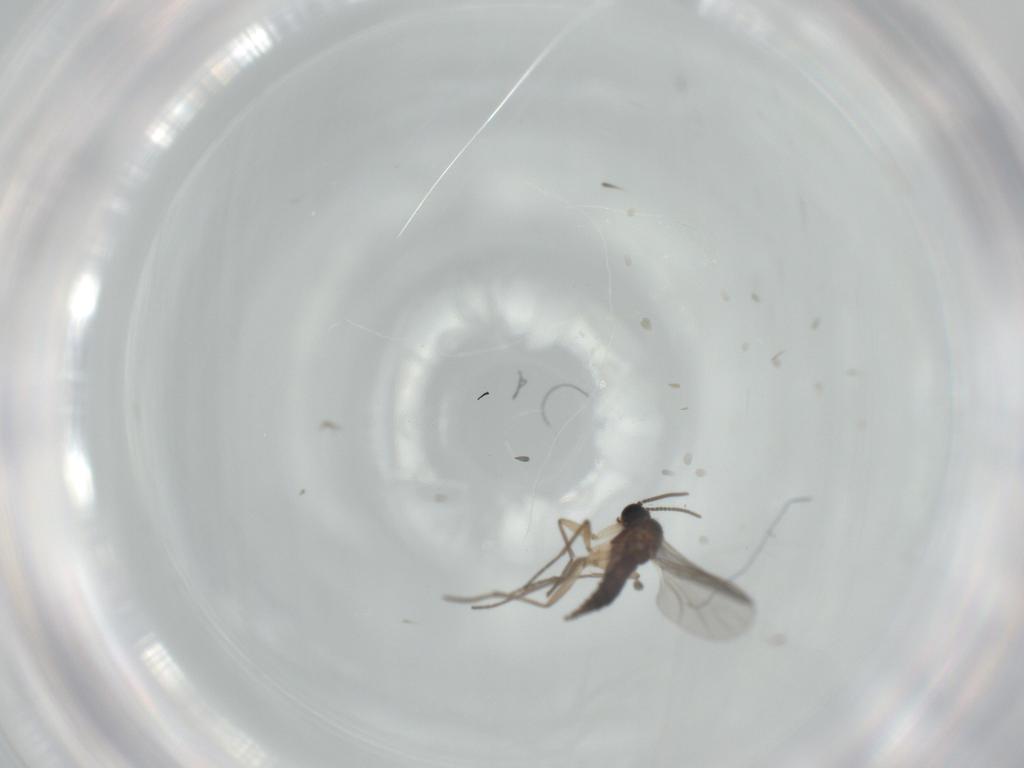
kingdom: Animalia
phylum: Arthropoda
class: Insecta
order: Diptera
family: Sciaridae
